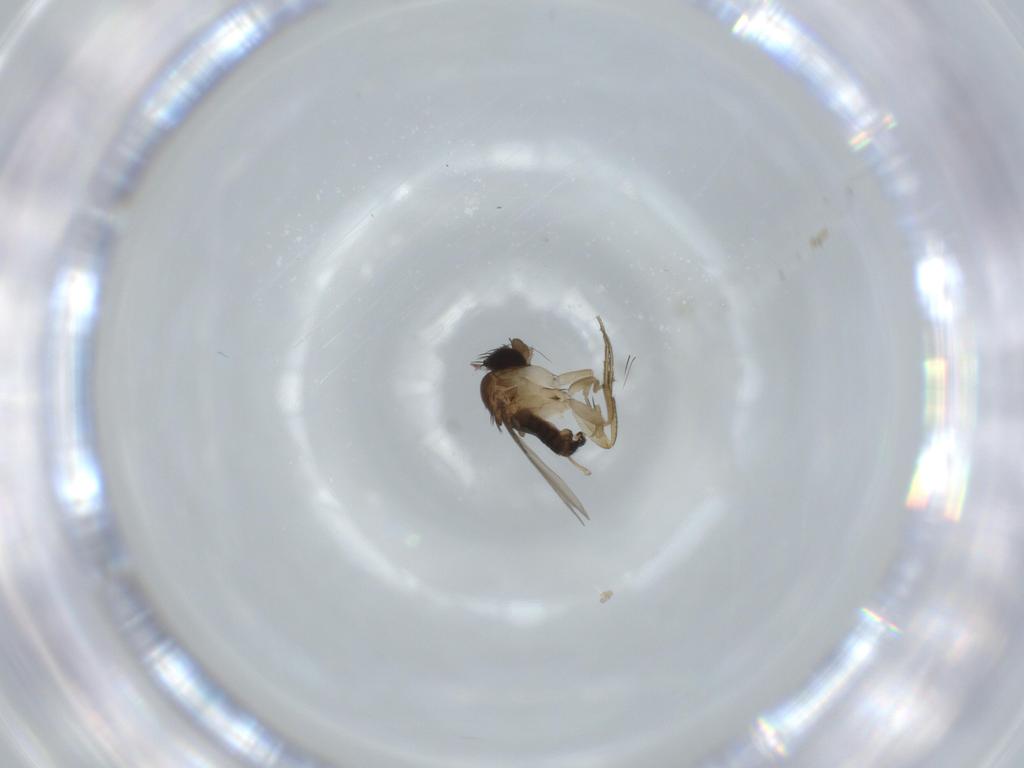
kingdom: Animalia
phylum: Arthropoda
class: Insecta
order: Diptera
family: Phoridae
